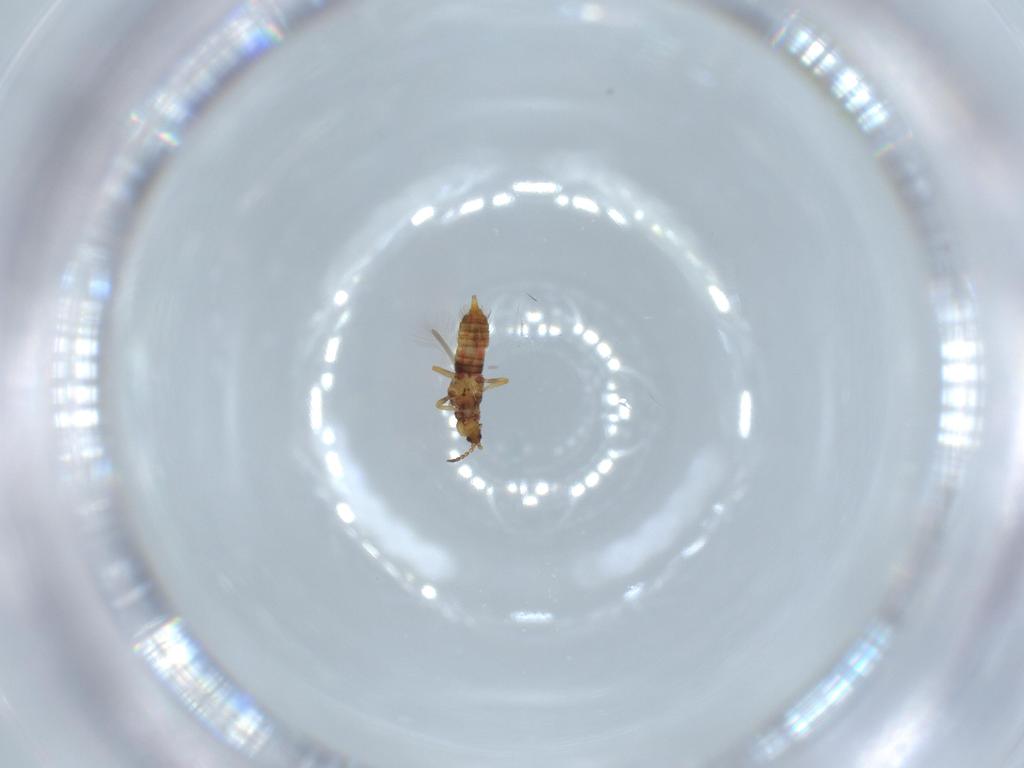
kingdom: Animalia
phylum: Arthropoda
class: Insecta
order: Thysanoptera
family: Phlaeothripidae
